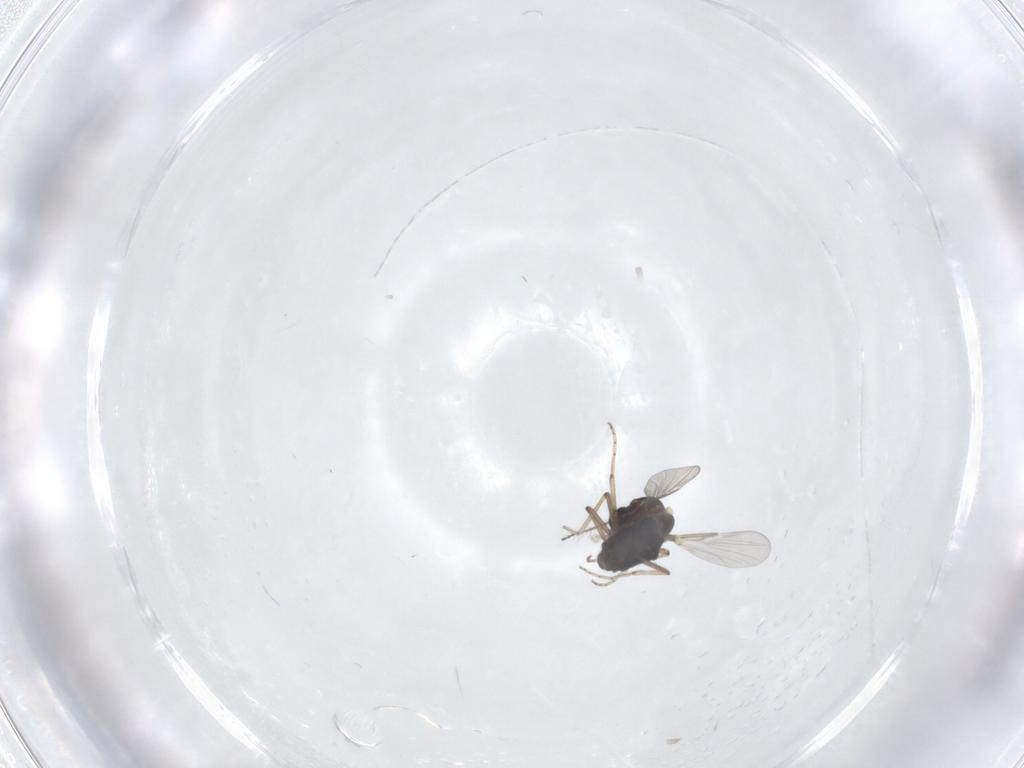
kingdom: Animalia
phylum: Arthropoda
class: Insecta
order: Diptera
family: Ceratopogonidae
